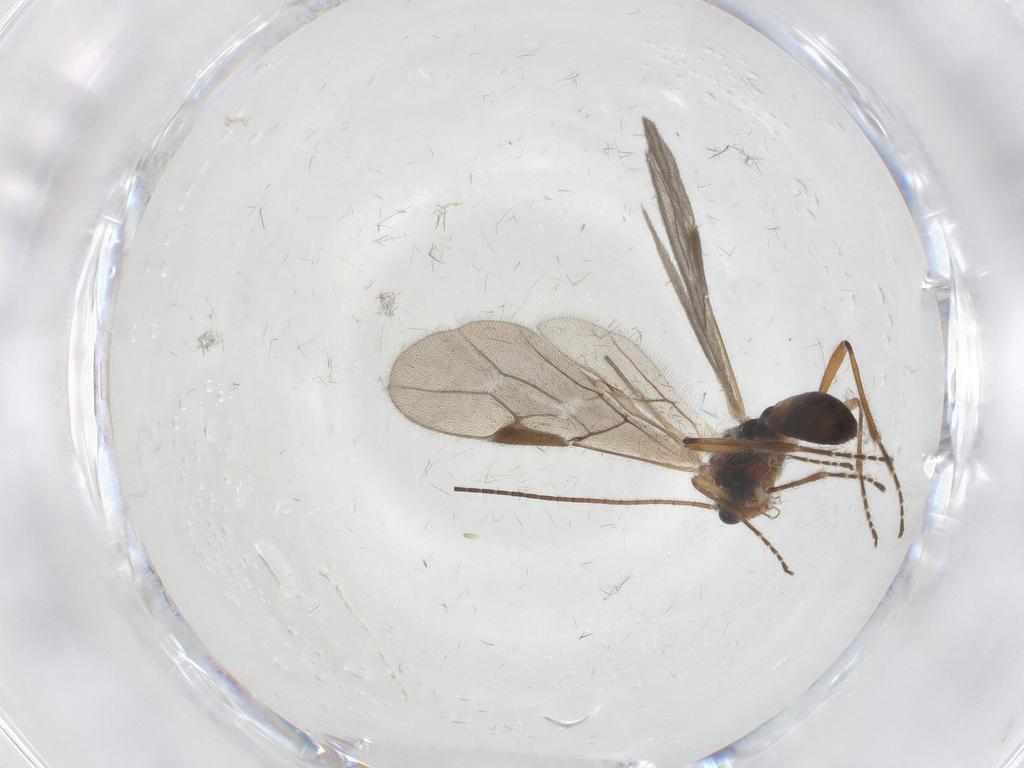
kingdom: Animalia
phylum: Arthropoda
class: Insecta
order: Hymenoptera
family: Braconidae
